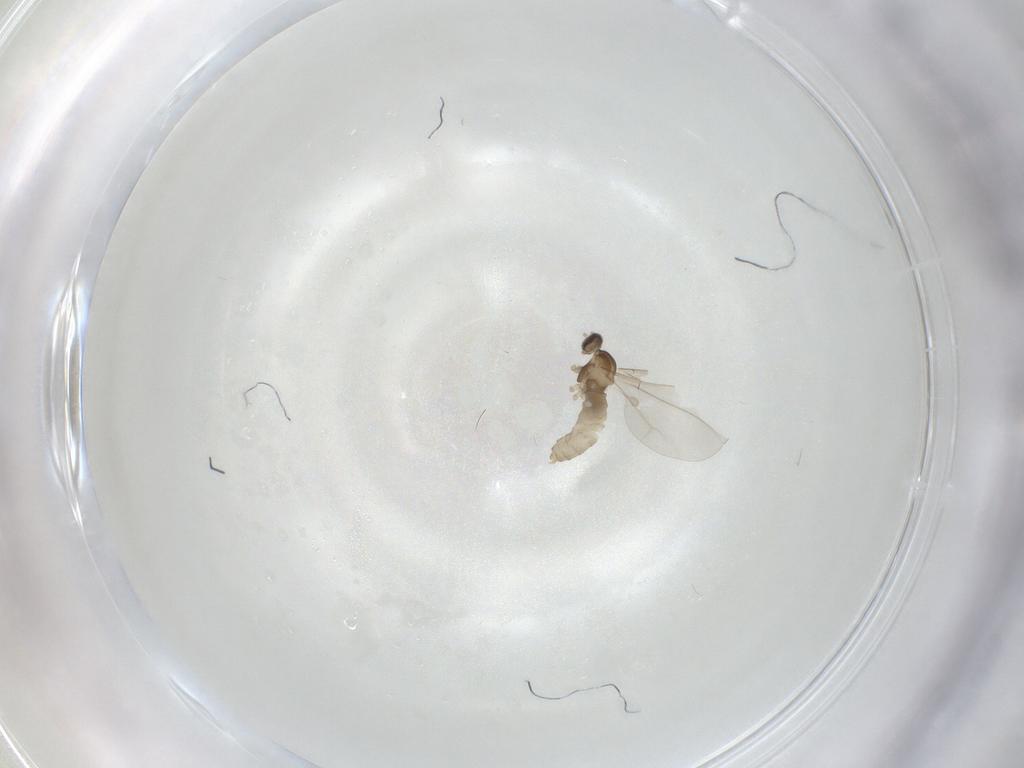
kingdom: Animalia
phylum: Arthropoda
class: Insecta
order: Diptera
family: Cecidomyiidae
